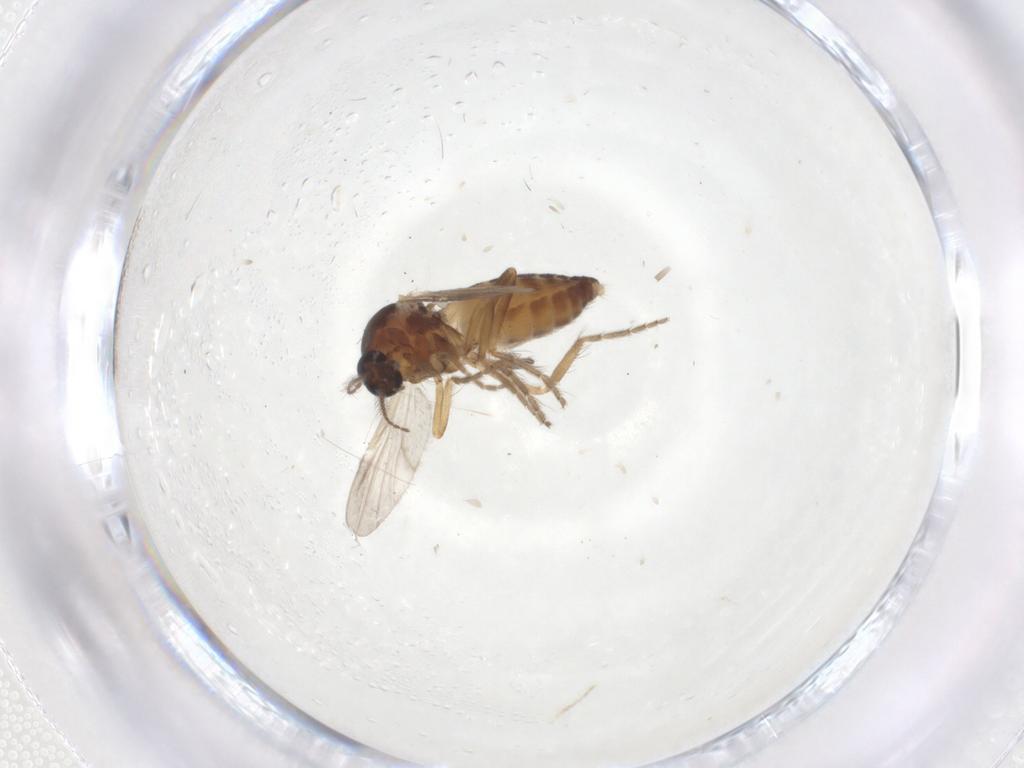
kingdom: Animalia
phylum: Arthropoda
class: Insecta
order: Diptera
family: Ceratopogonidae
